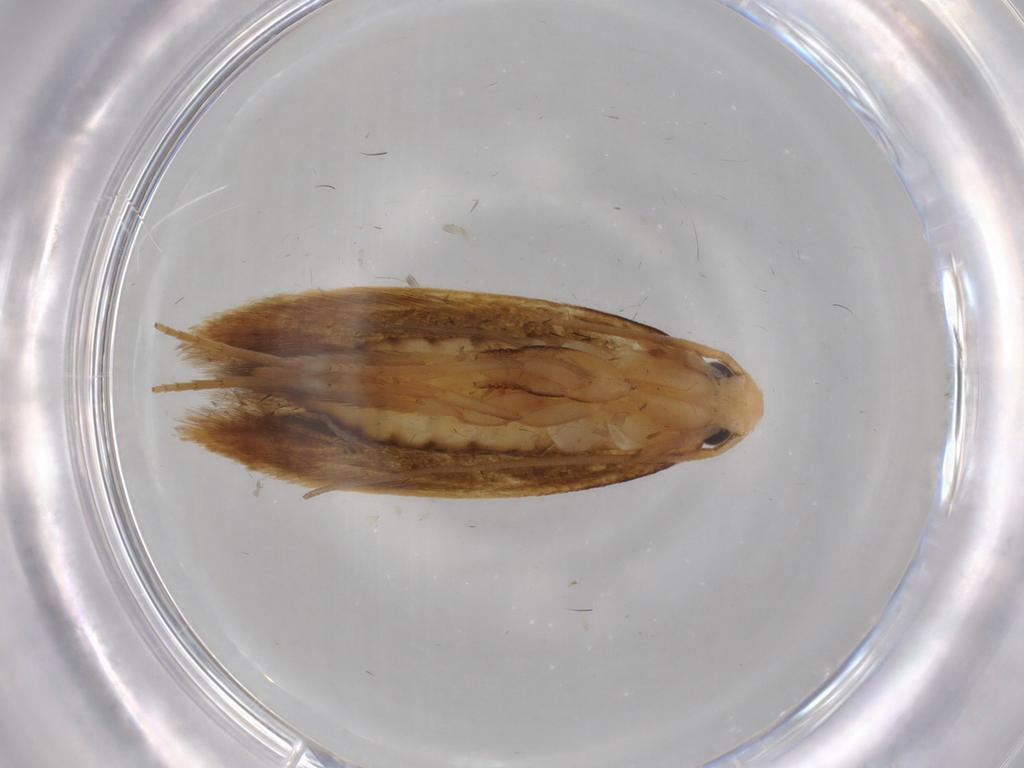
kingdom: Animalia
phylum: Arthropoda
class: Insecta
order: Lepidoptera
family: Tineidae
